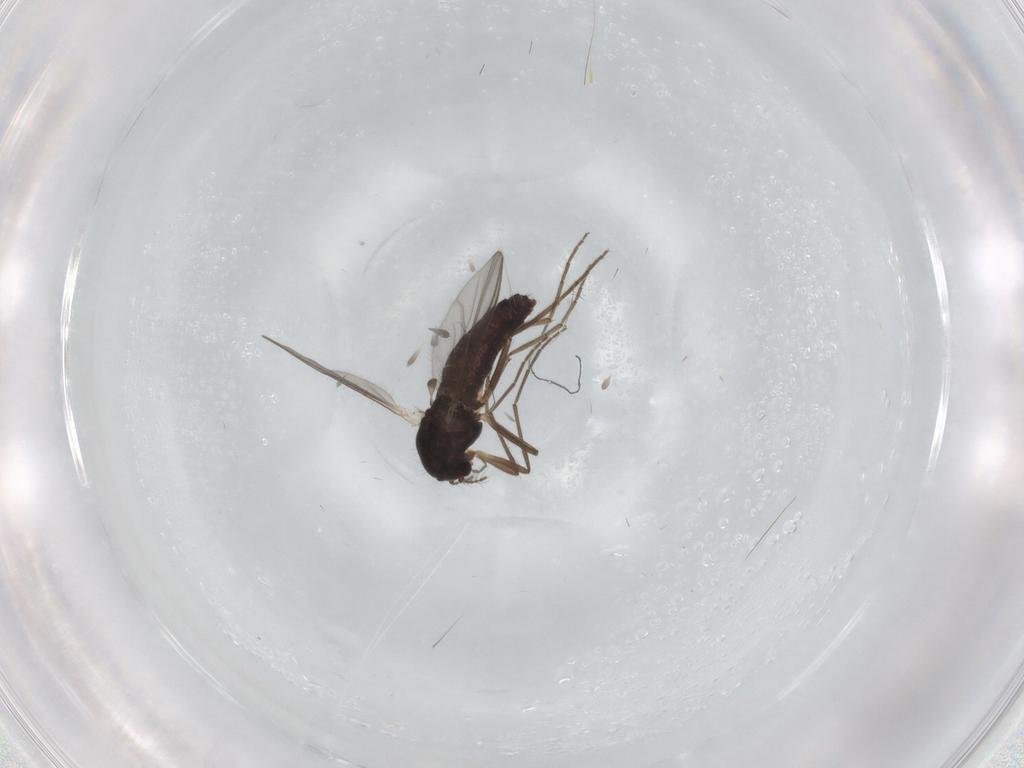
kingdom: Animalia
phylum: Arthropoda
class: Insecta
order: Diptera
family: Chironomidae
